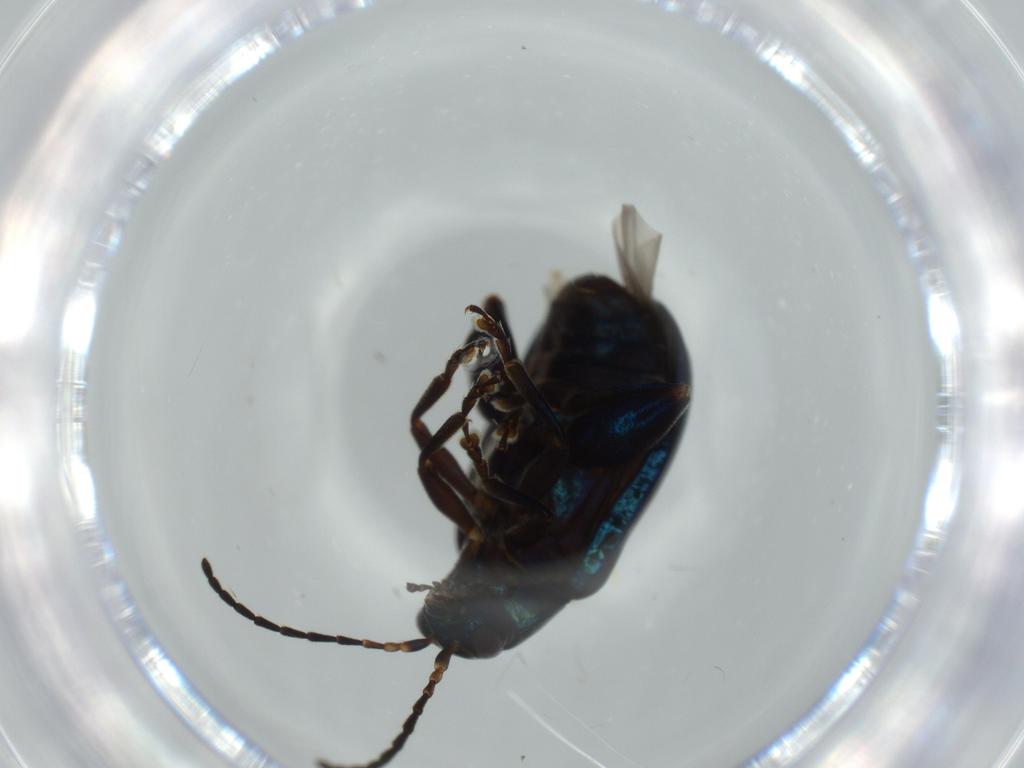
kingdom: Animalia
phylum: Arthropoda
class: Insecta
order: Coleoptera
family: Chrysomelidae
